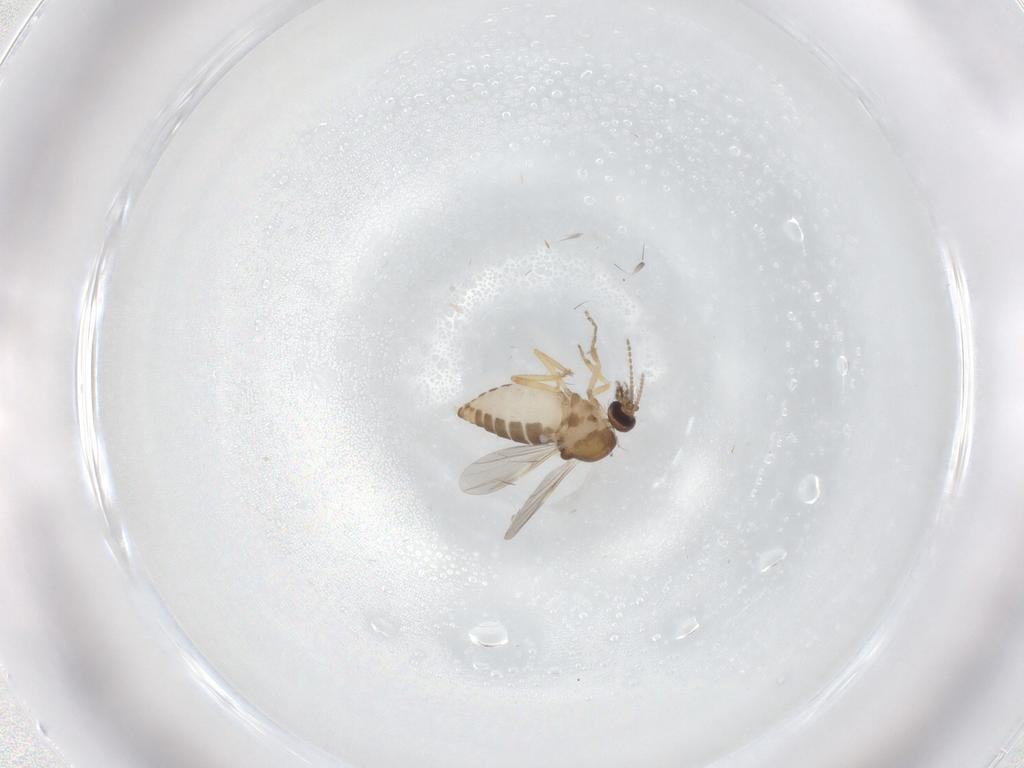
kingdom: Animalia
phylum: Arthropoda
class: Insecta
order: Diptera
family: Ceratopogonidae
